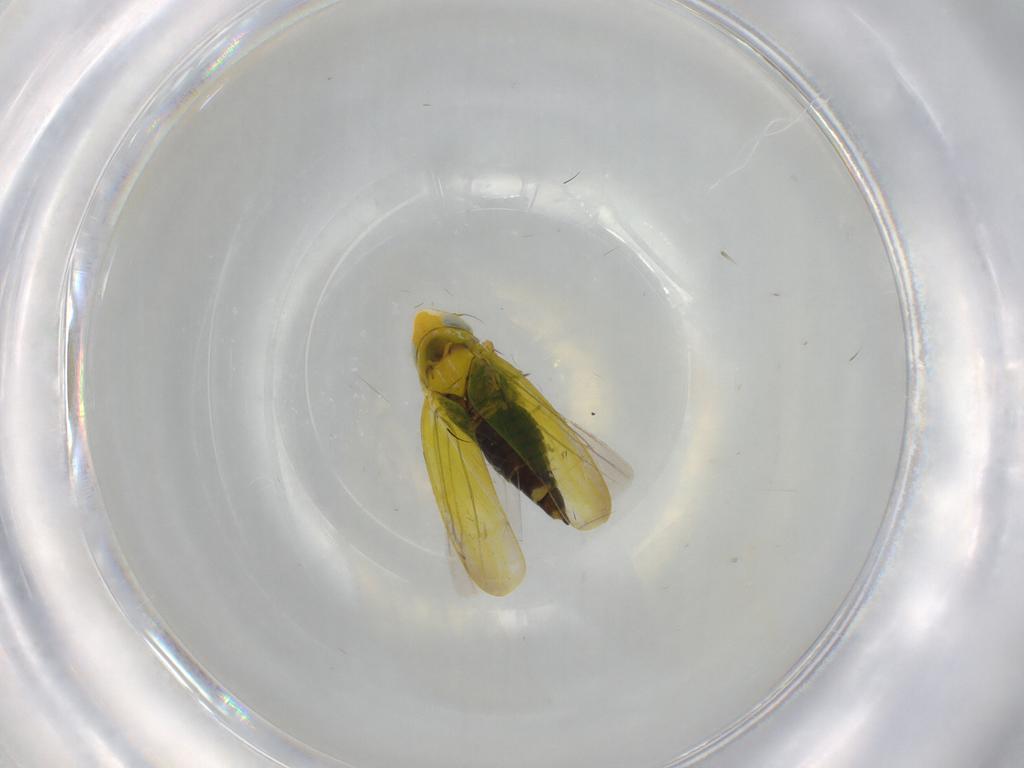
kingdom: Animalia
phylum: Arthropoda
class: Insecta
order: Hemiptera
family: Cicadellidae
